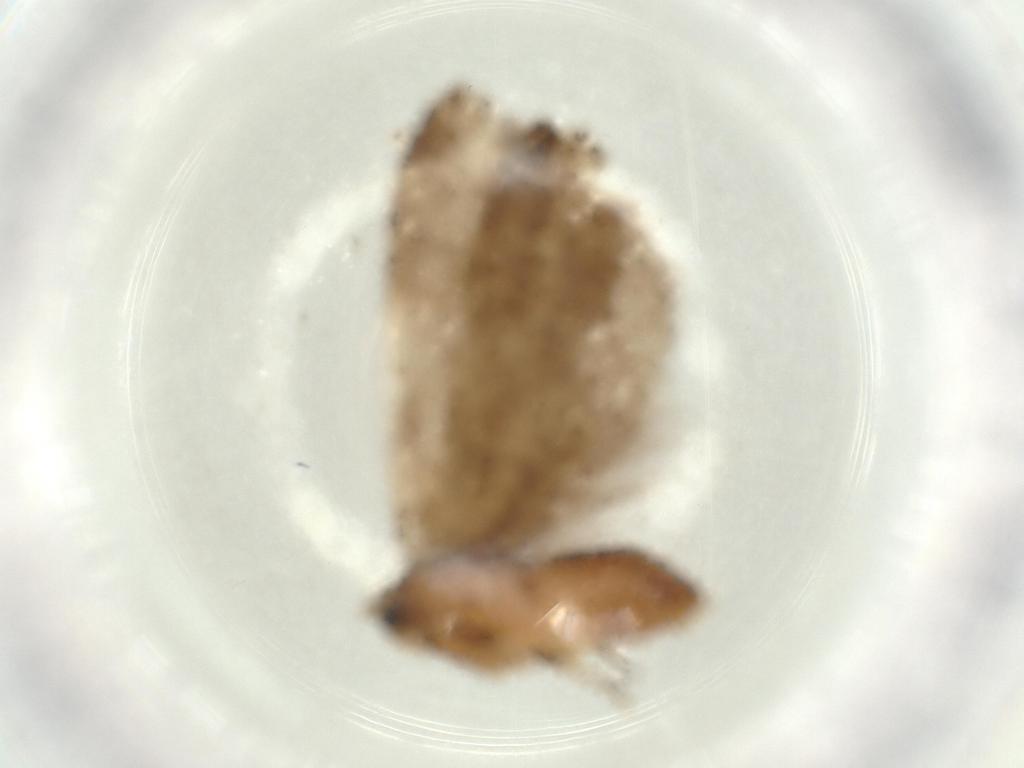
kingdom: Animalia
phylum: Arthropoda
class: Insecta
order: Lepidoptera
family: Tineidae
